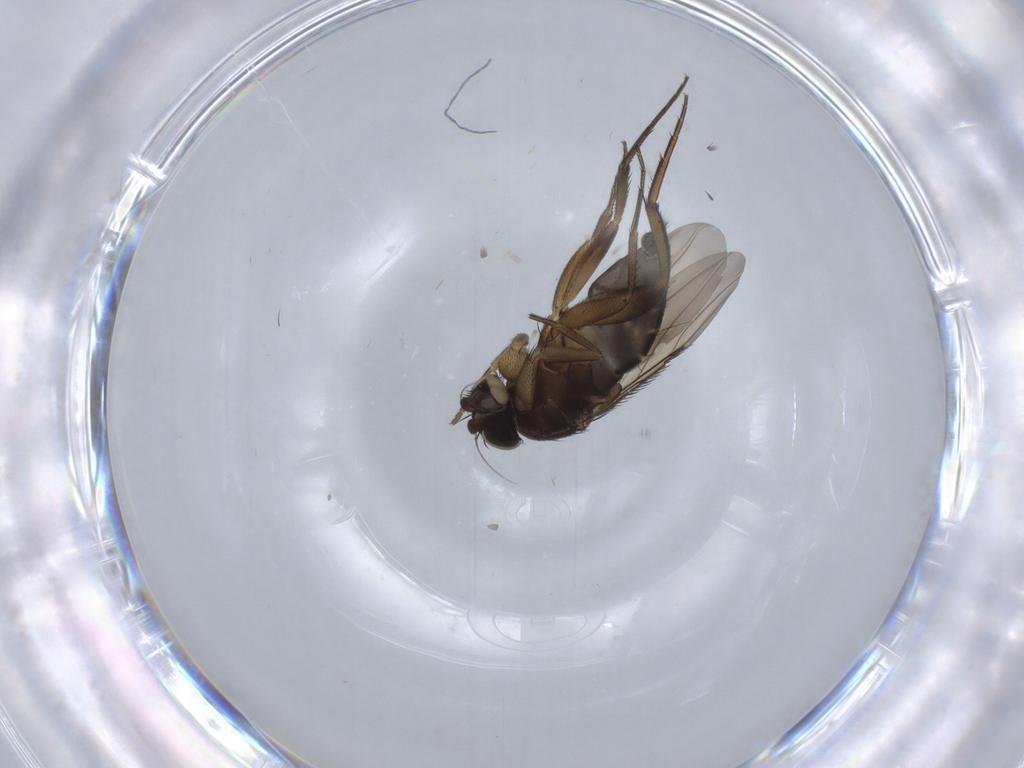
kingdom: Animalia
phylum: Arthropoda
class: Insecta
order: Diptera
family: Phoridae
